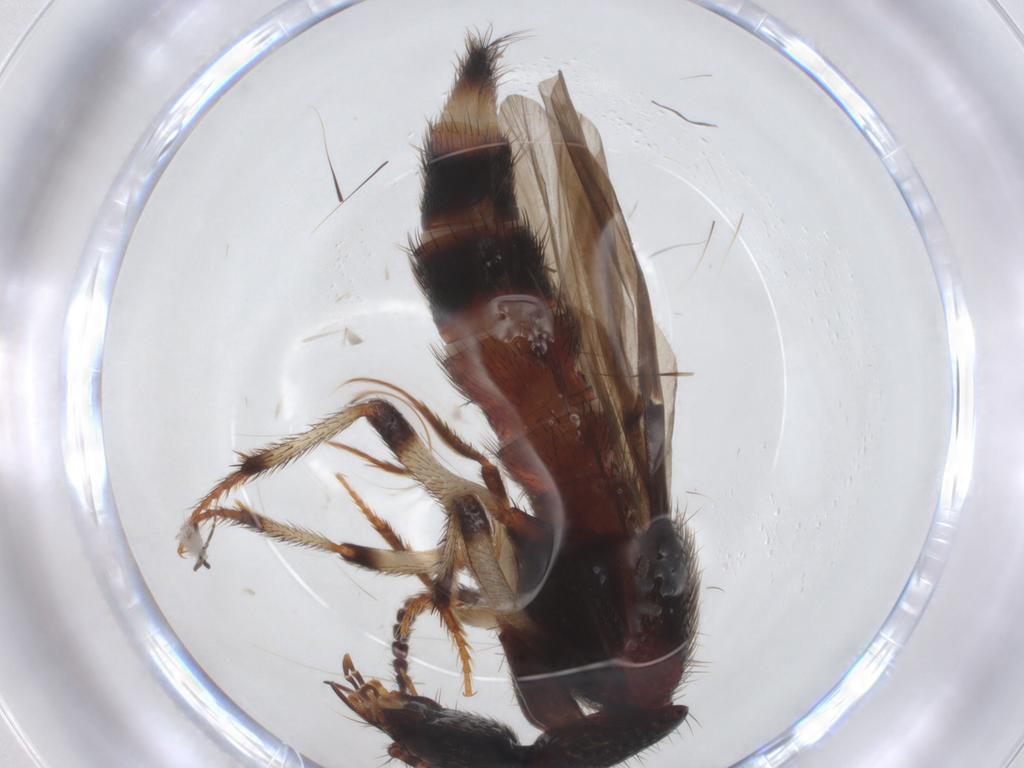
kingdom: Animalia
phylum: Arthropoda
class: Insecta
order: Coleoptera
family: Staphylinidae
